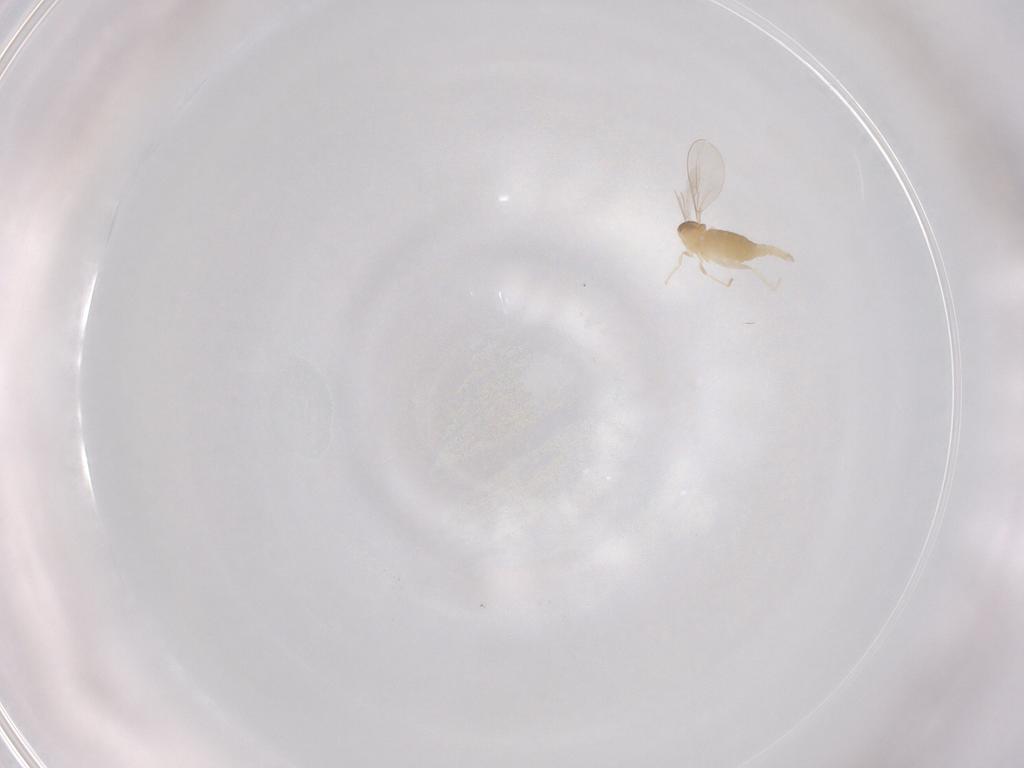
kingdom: Animalia
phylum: Arthropoda
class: Insecta
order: Diptera
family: Cecidomyiidae
